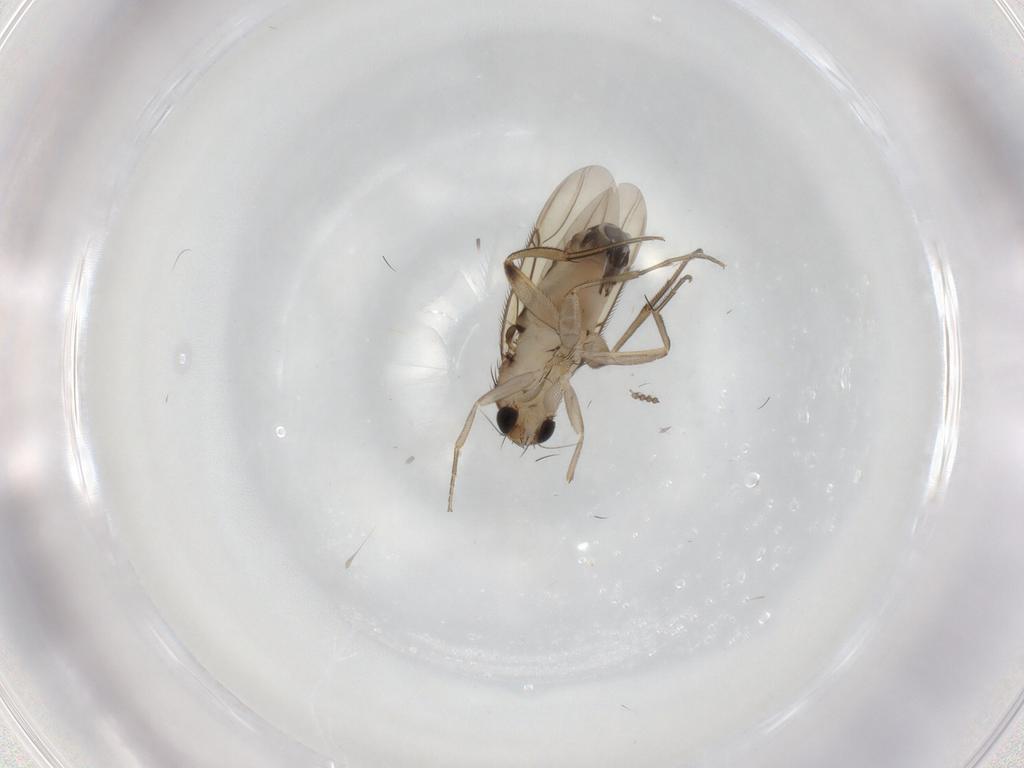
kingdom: Animalia
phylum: Arthropoda
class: Insecta
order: Diptera
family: Phoridae
